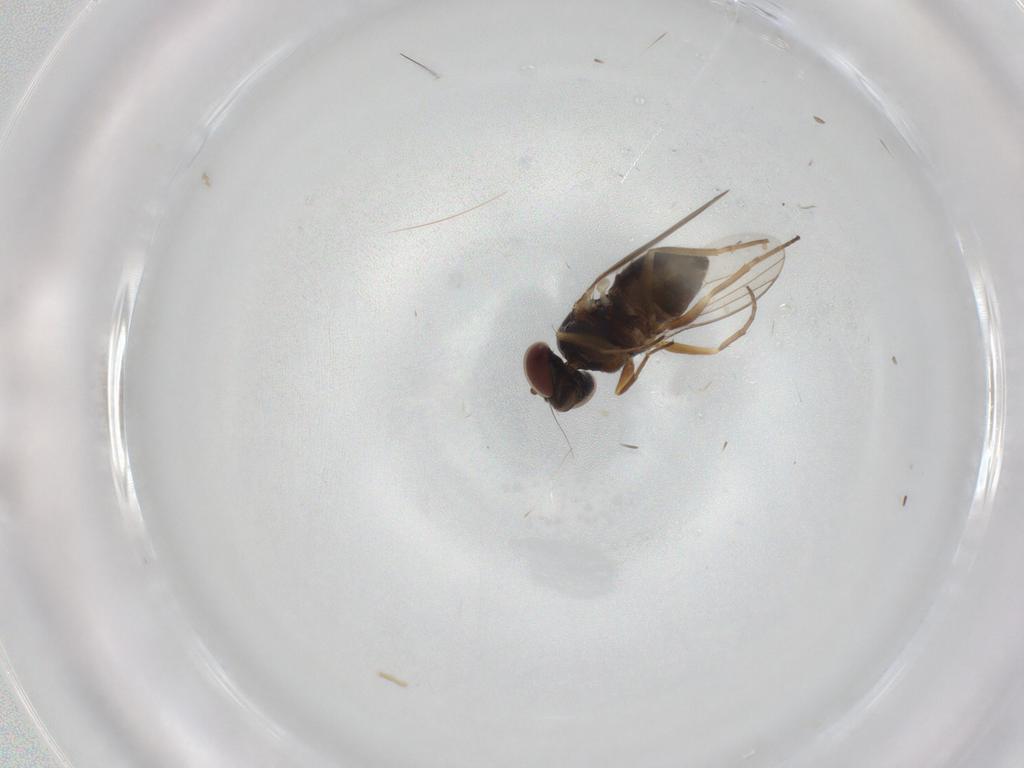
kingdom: Animalia
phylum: Arthropoda
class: Insecta
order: Diptera
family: Dolichopodidae
